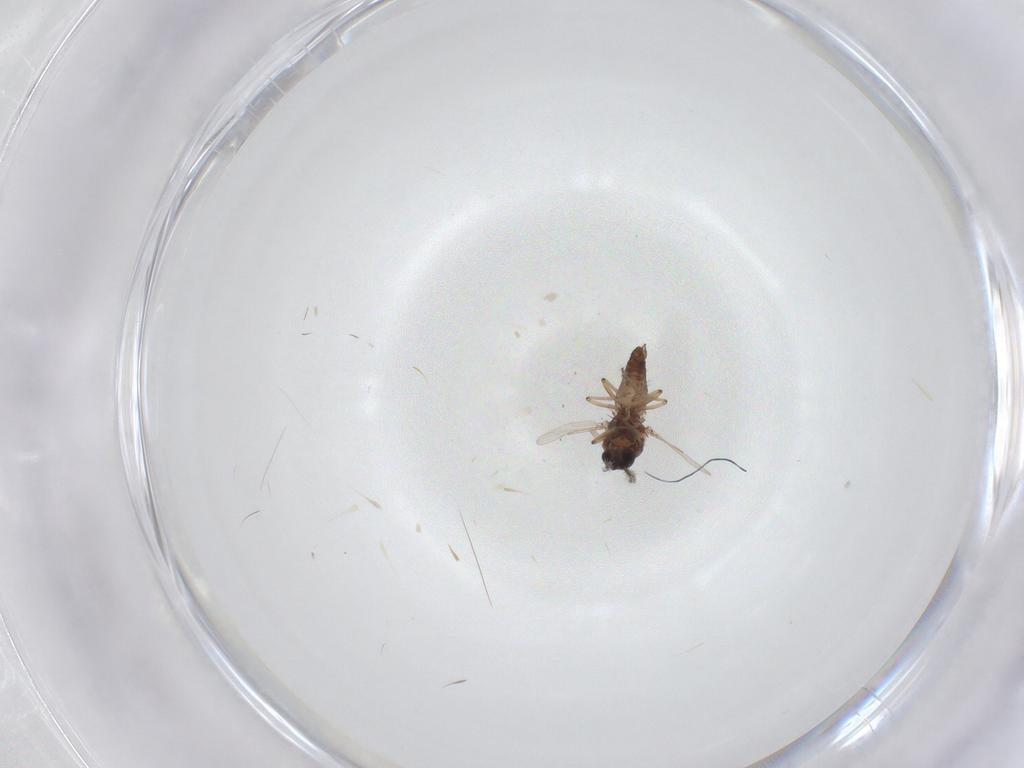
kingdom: Animalia
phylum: Arthropoda
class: Insecta
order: Diptera
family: Ceratopogonidae
